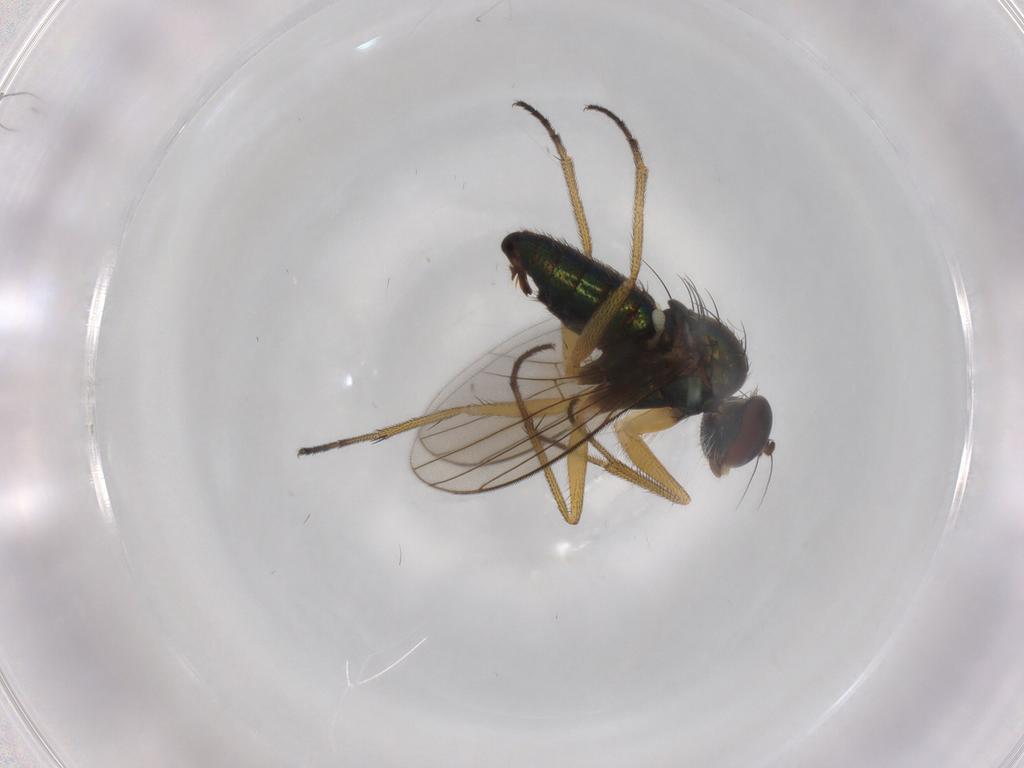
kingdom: Animalia
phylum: Arthropoda
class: Insecta
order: Diptera
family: Dolichopodidae
